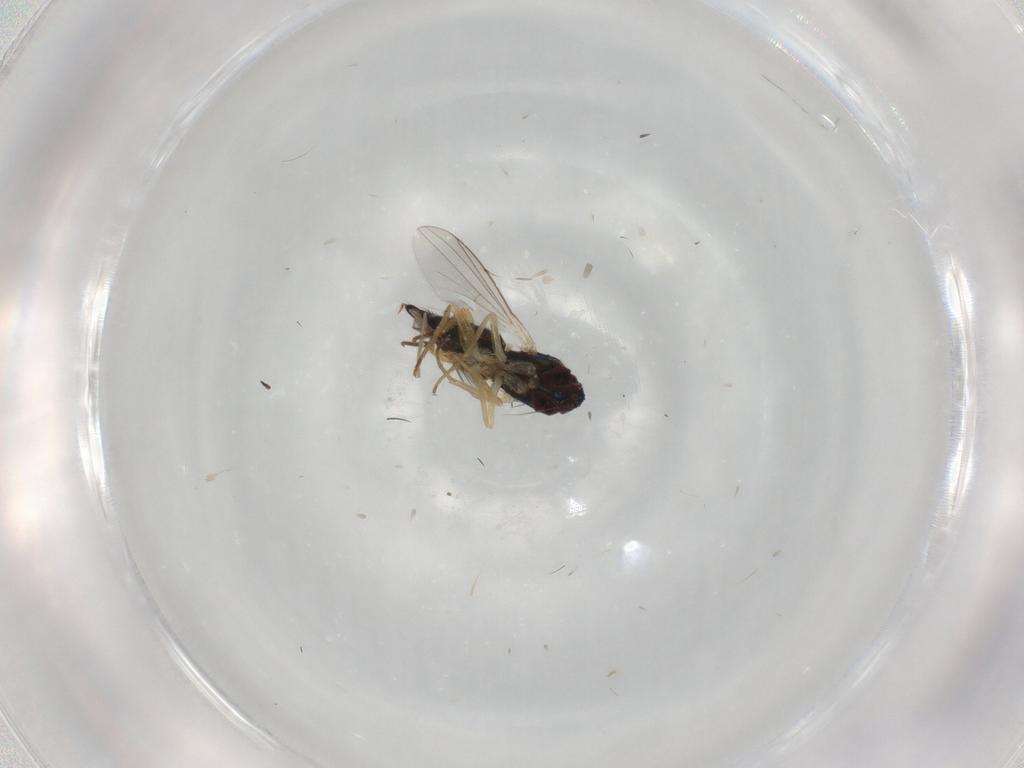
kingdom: Animalia
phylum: Arthropoda
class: Insecta
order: Diptera
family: Dolichopodidae
